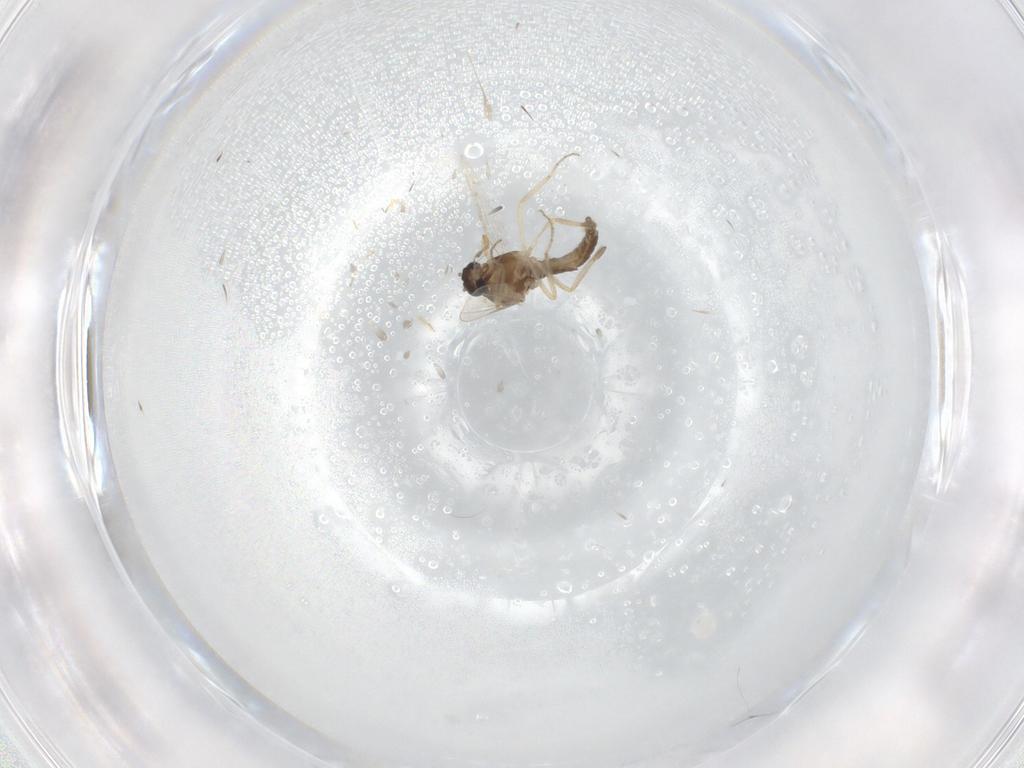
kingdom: Animalia
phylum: Arthropoda
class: Insecta
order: Diptera
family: Ceratopogonidae
